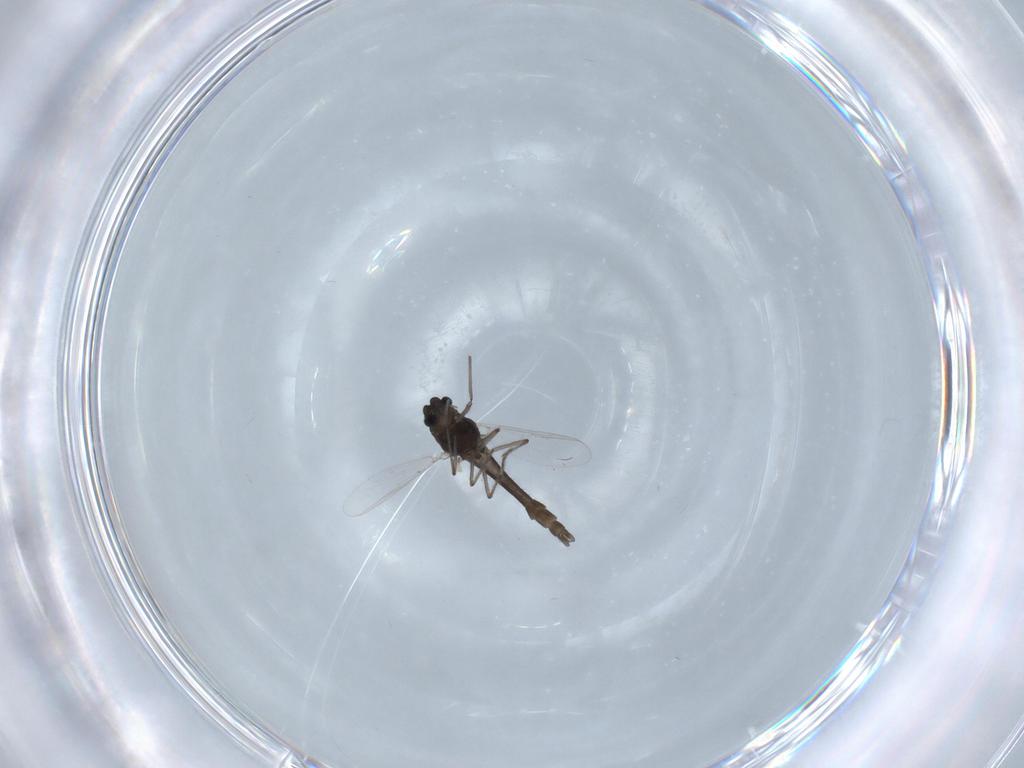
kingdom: Animalia
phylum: Arthropoda
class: Insecta
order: Diptera
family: Chironomidae
